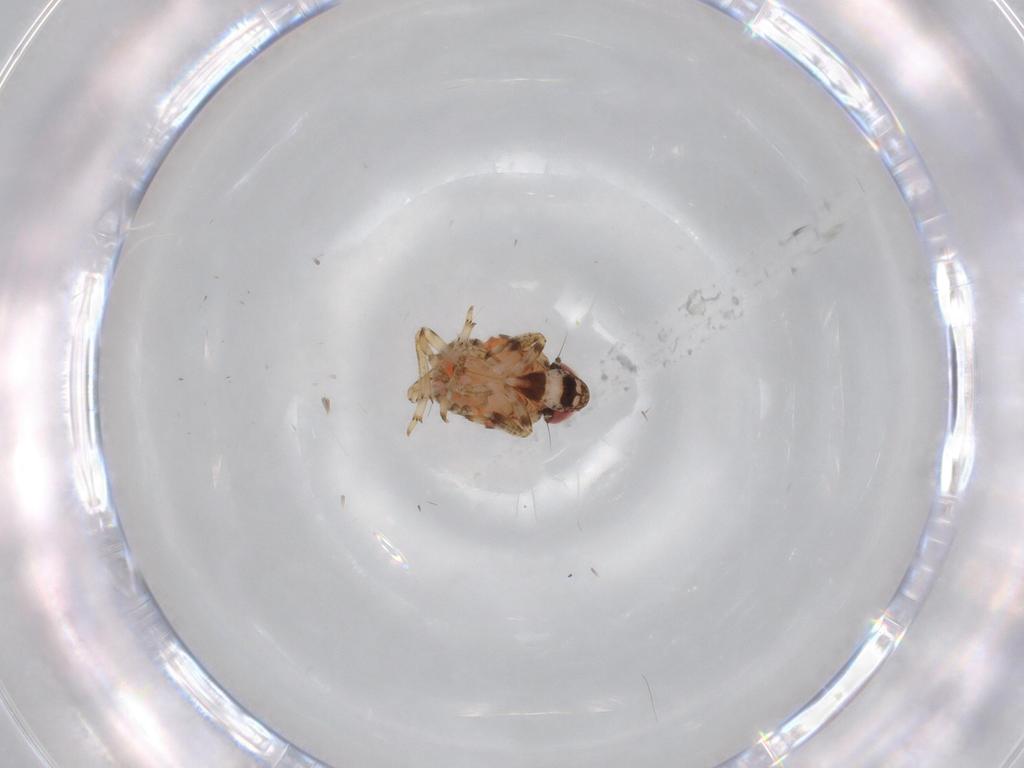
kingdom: Animalia
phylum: Arthropoda
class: Insecta
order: Hemiptera
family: Issidae
